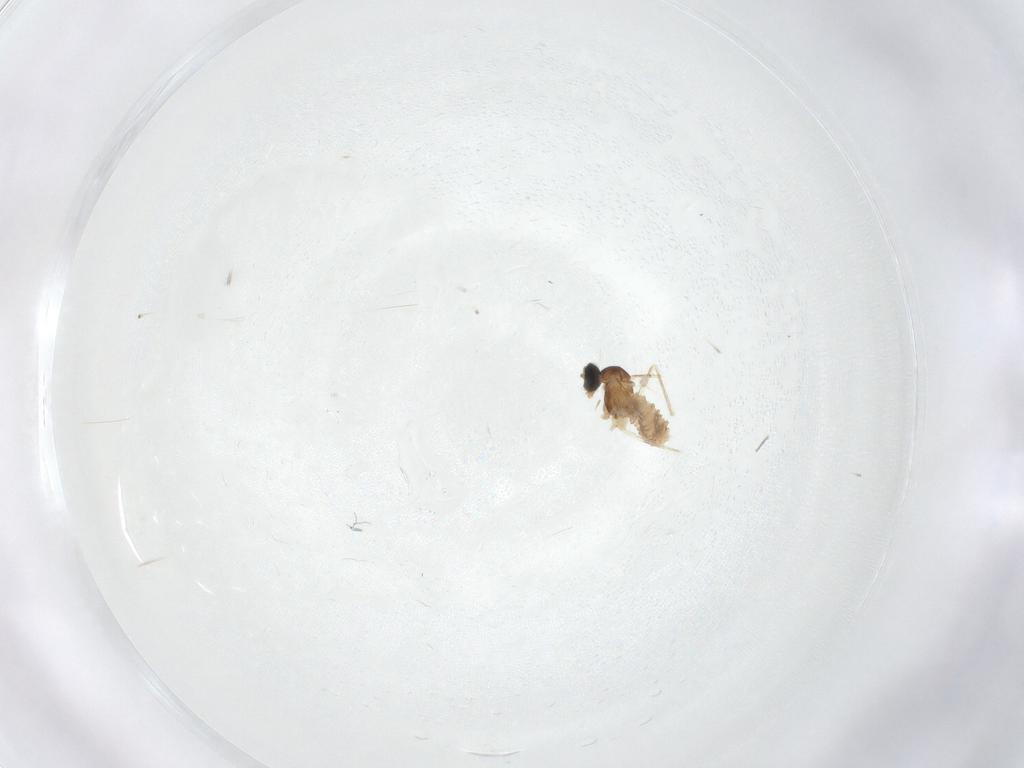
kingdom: Animalia
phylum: Arthropoda
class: Insecta
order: Diptera
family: Cecidomyiidae
